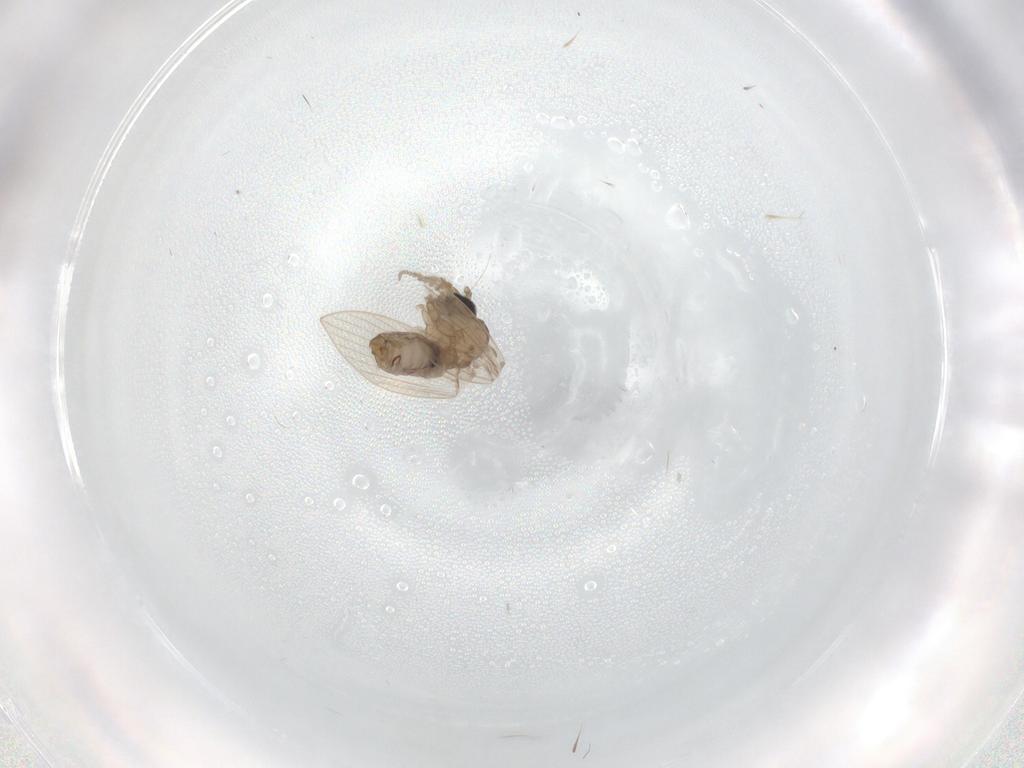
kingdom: Animalia
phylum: Arthropoda
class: Insecta
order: Diptera
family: Psychodidae
